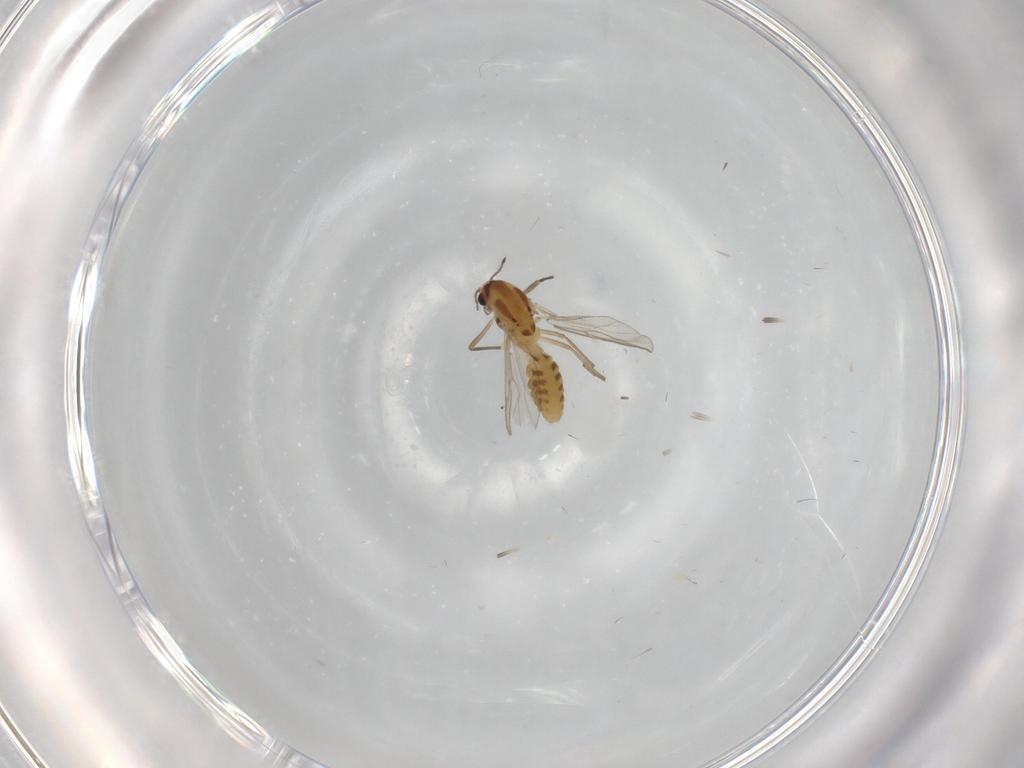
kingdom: Animalia
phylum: Arthropoda
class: Insecta
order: Diptera
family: Chironomidae
